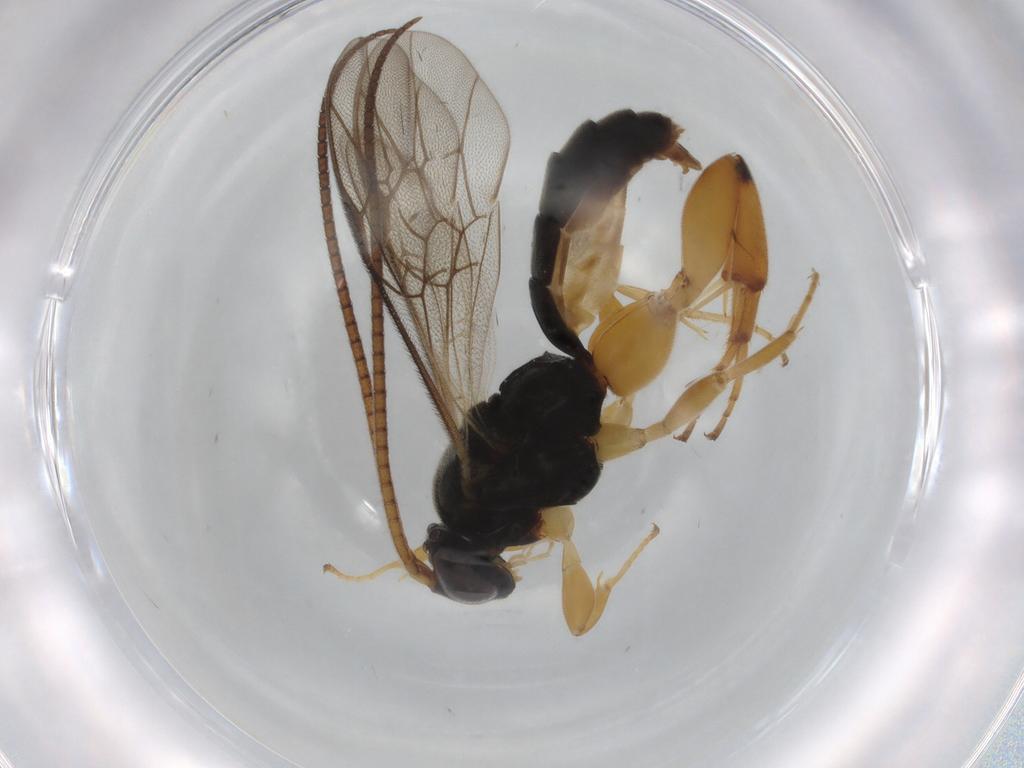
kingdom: Animalia
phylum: Arthropoda
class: Insecta
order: Hymenoptera
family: Ichneumonidae
